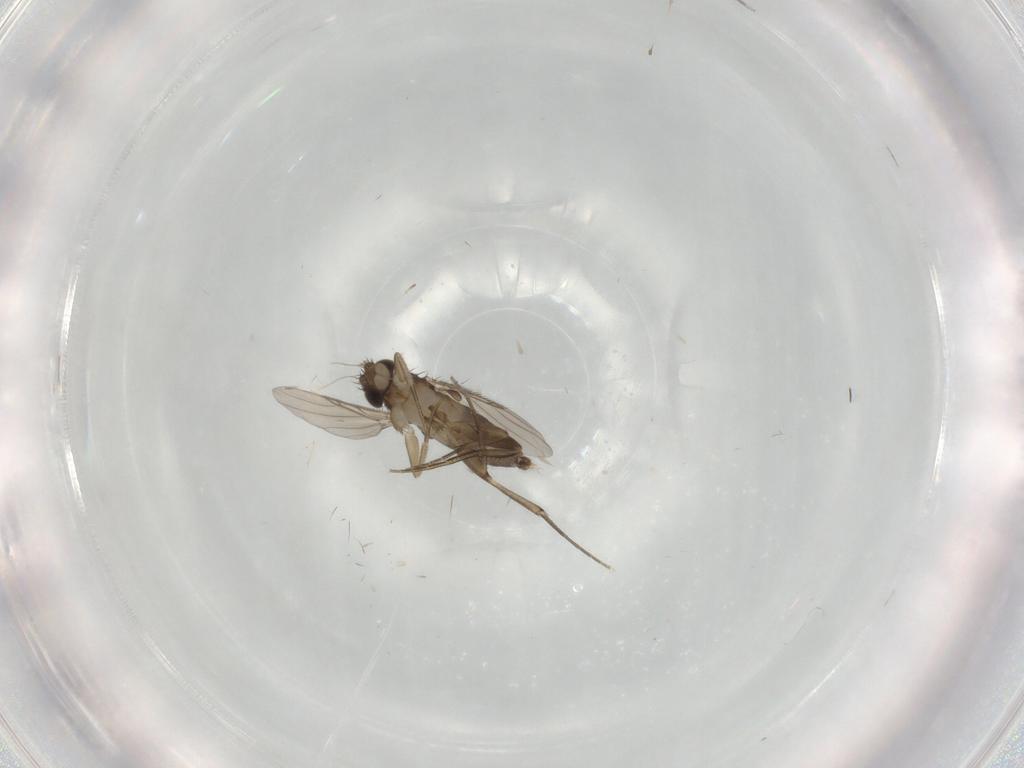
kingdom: Animalia
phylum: Arthropoda
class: Insecta
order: Diptera
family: Phoridae
